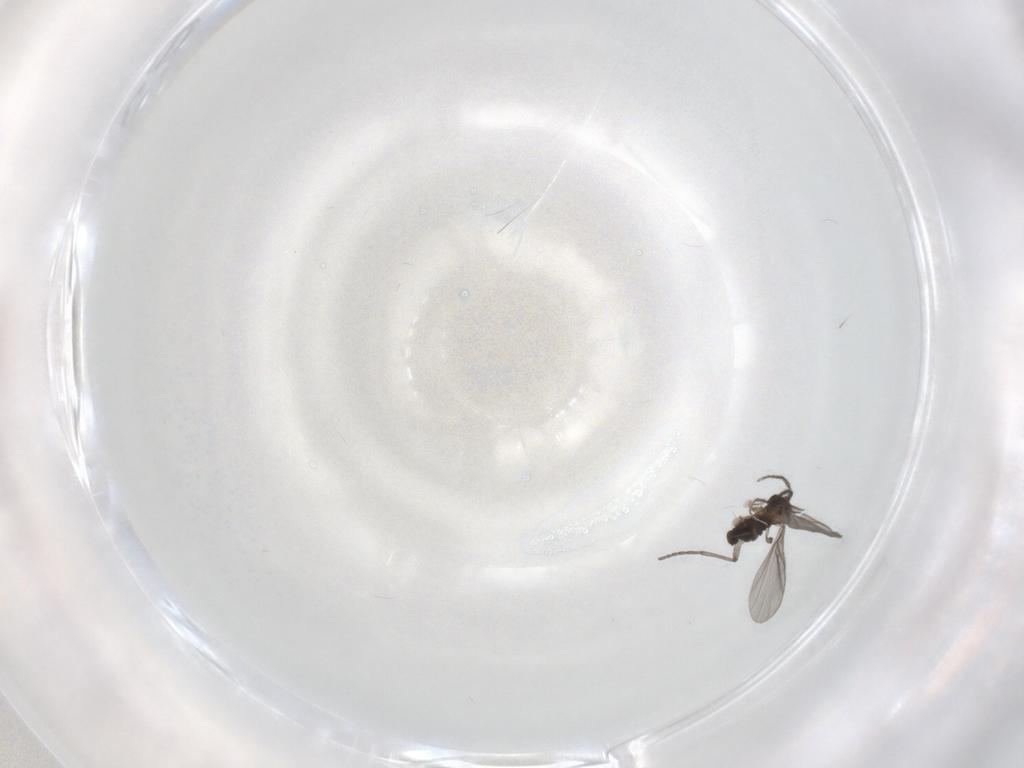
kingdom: Animalia
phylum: Arthropoda
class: Insecta
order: Diptera
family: Sciaridae
